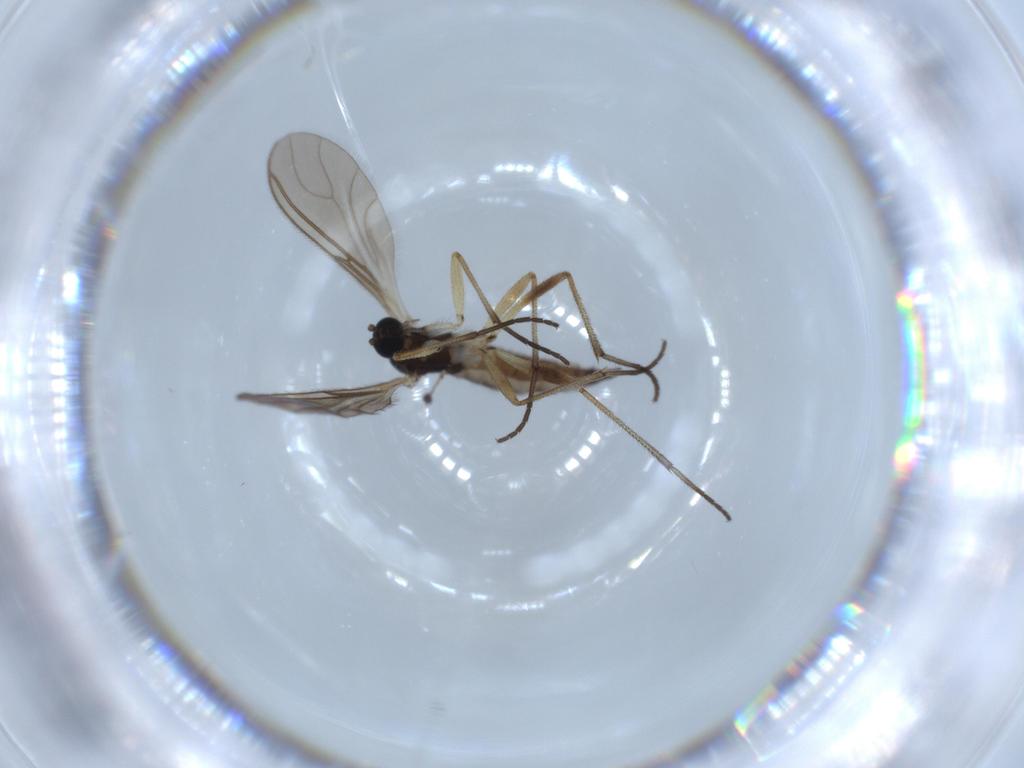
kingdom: Animalia
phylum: Arthropoda
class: Insecta
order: Diptera
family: Sciaridae
